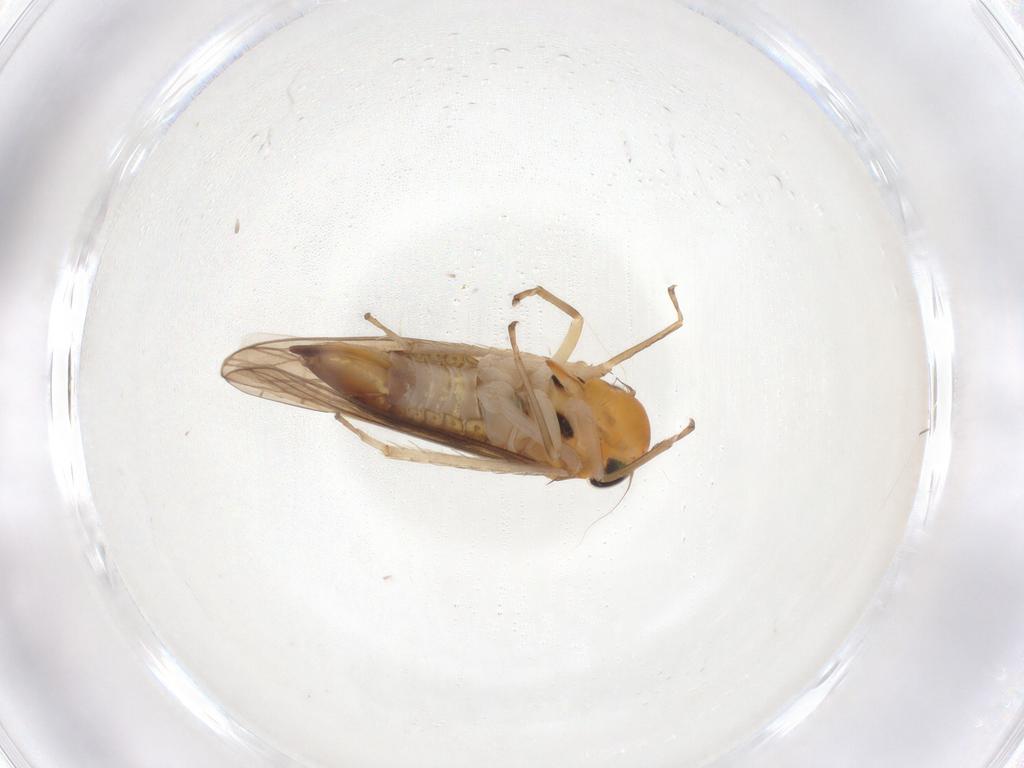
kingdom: Animalia
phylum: Arthropoda
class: Insecta
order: Hemiptera
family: Cicadellidae
